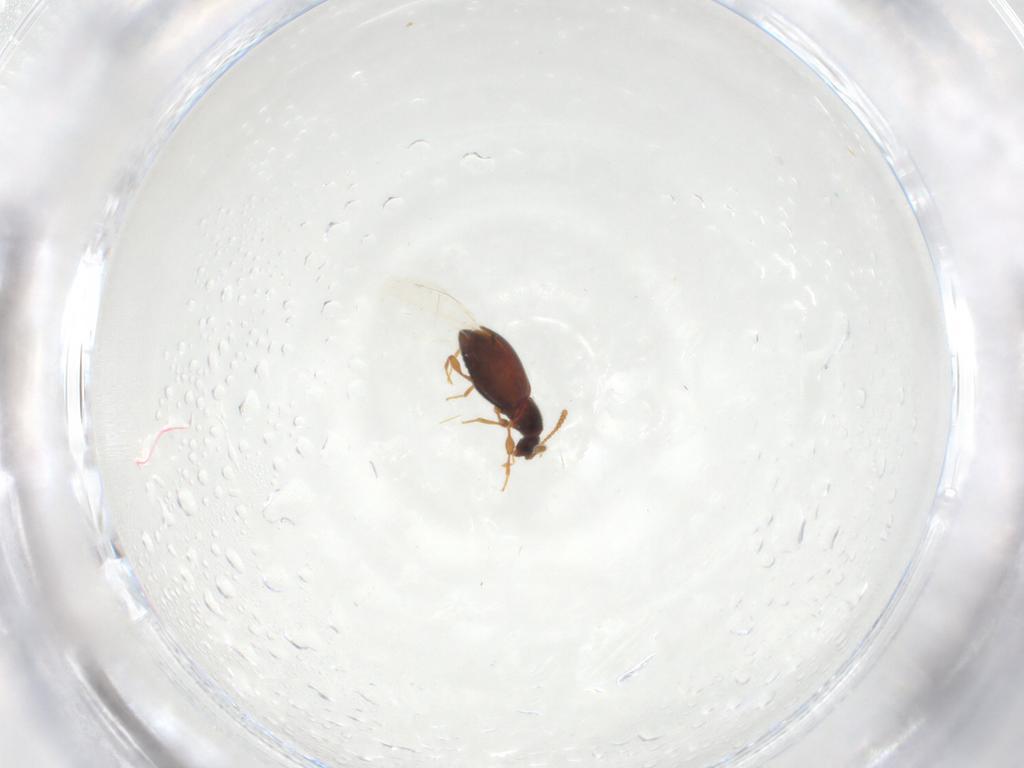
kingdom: Animalia
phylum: Arthropoda
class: Insecta
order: Coleoptera
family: Staphylinidae
